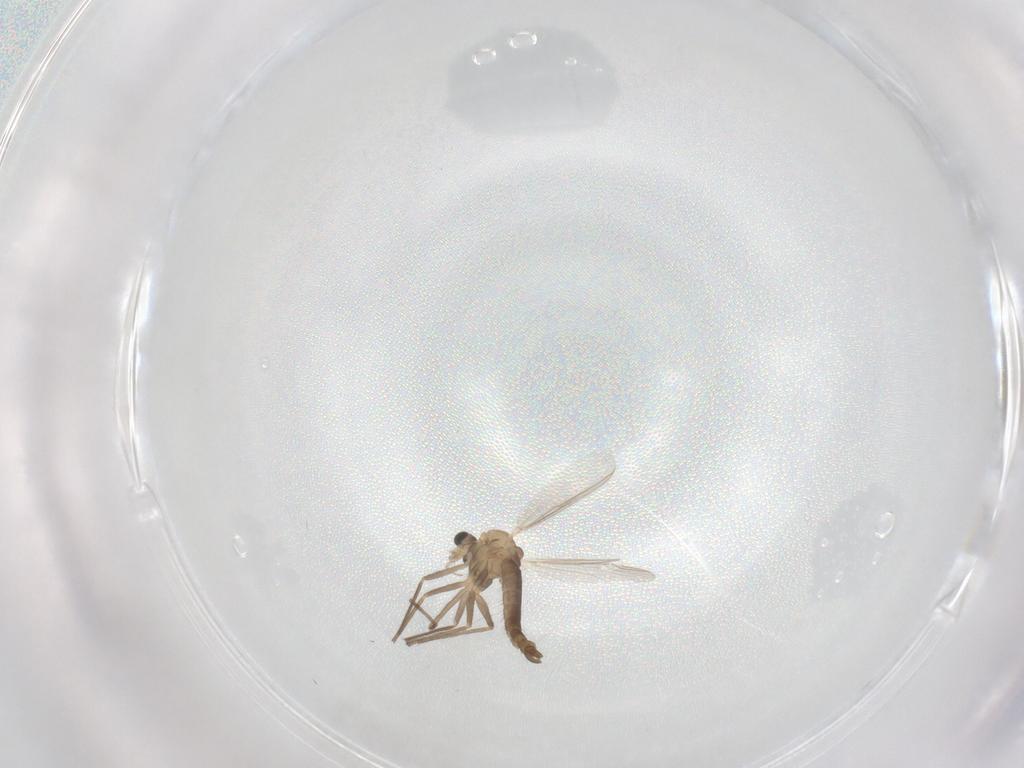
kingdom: Animalia
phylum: Arthropoda
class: Insecta
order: Diptera
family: Chironomidae
